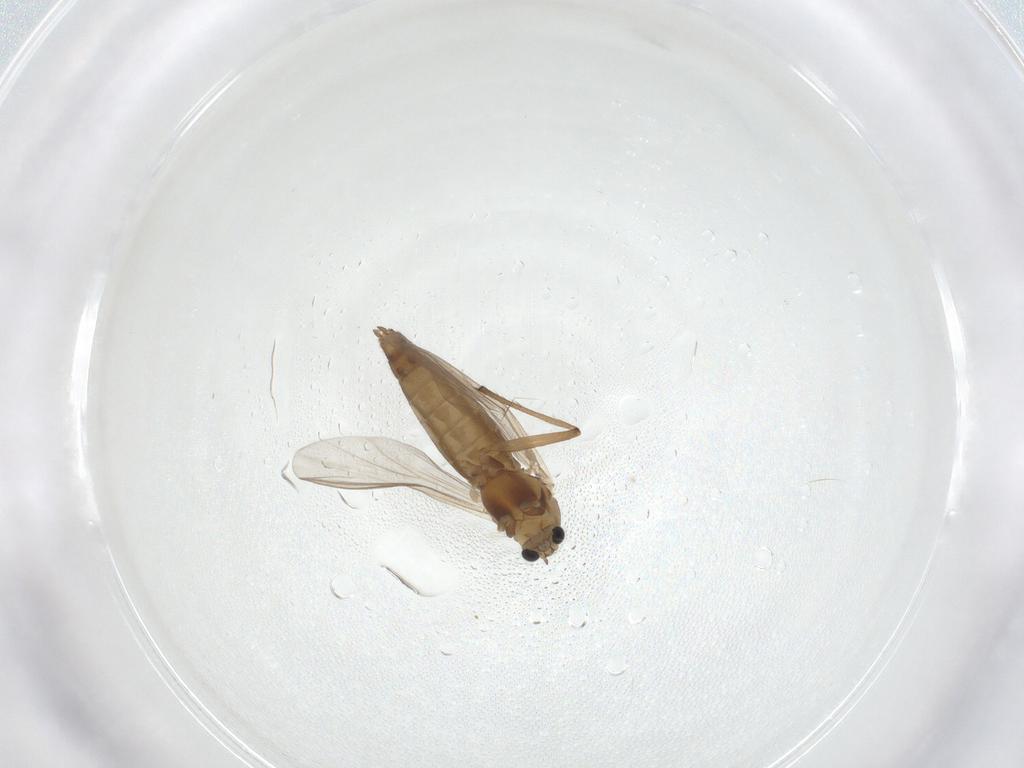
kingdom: Animalia
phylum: Arthropoda
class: Insecta
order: Diptera
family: Chironomidae
